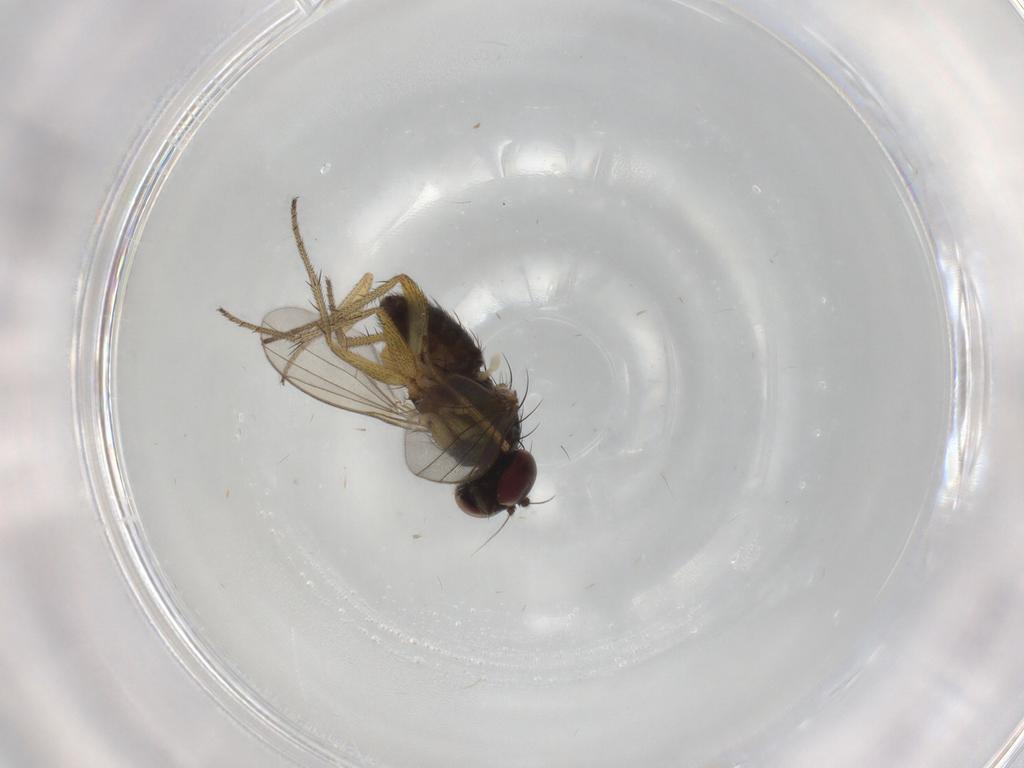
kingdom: Animalia
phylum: Arthropoda
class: Insecta
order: Diptera
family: Dolichopodidae
